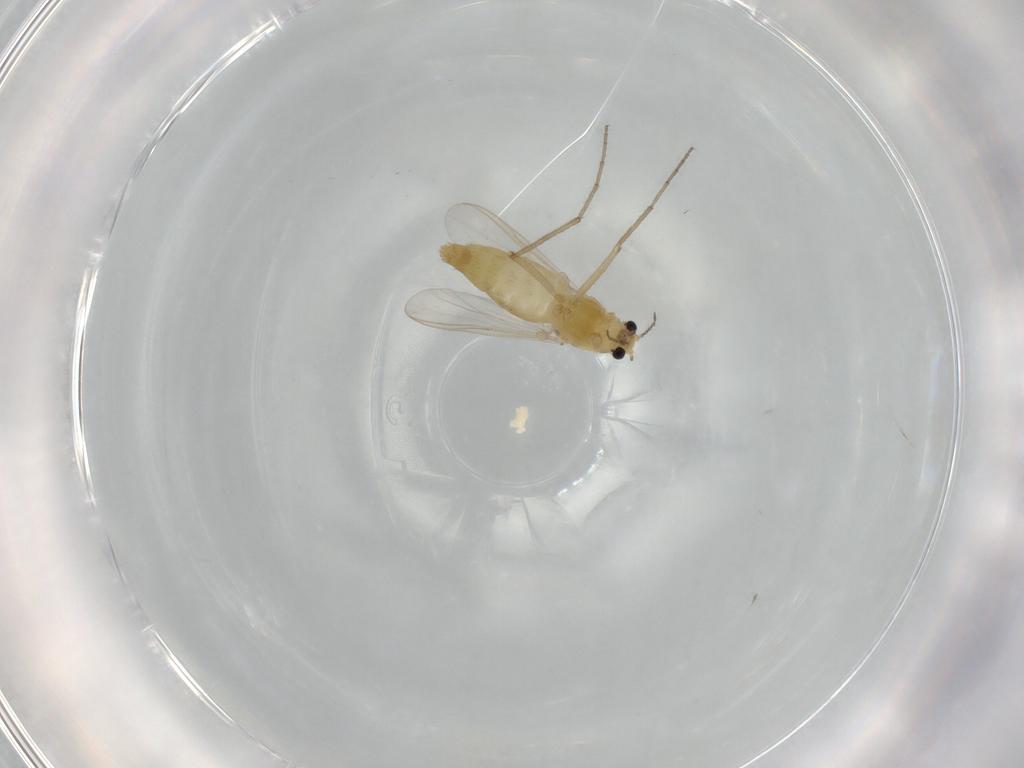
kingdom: Animalia
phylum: Arthropoda
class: Insecta
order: Diptera
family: Chironomidae
